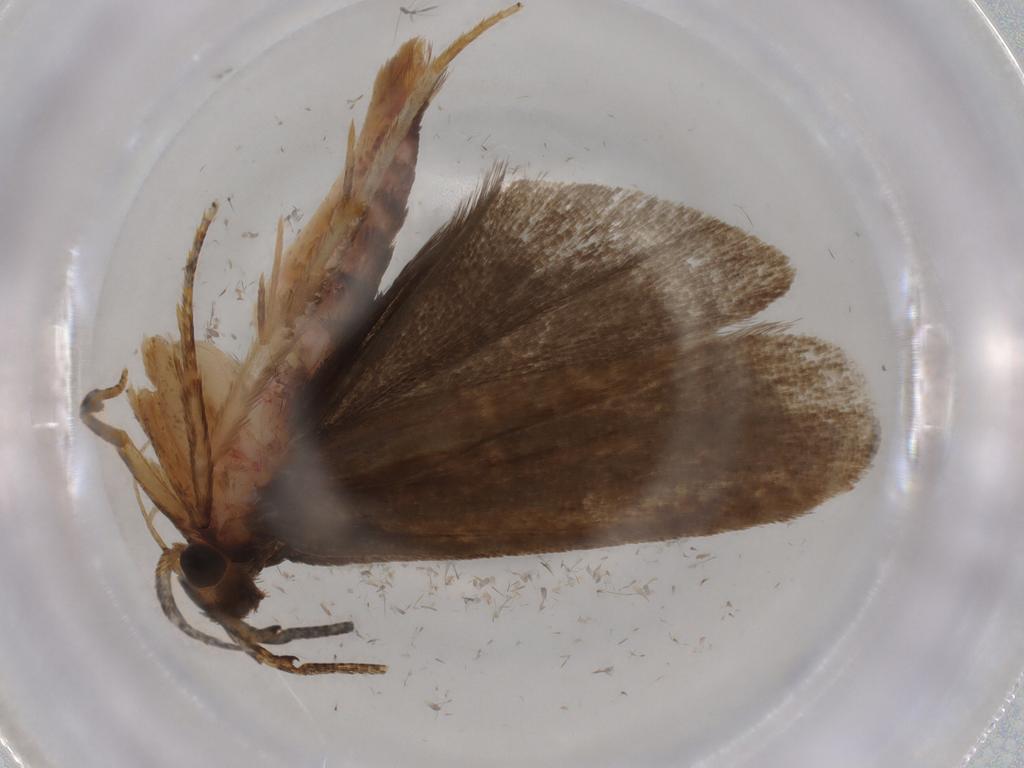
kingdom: Animalia
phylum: Arthropoda
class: Insecta
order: Lepidoptera
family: Autostichidae
